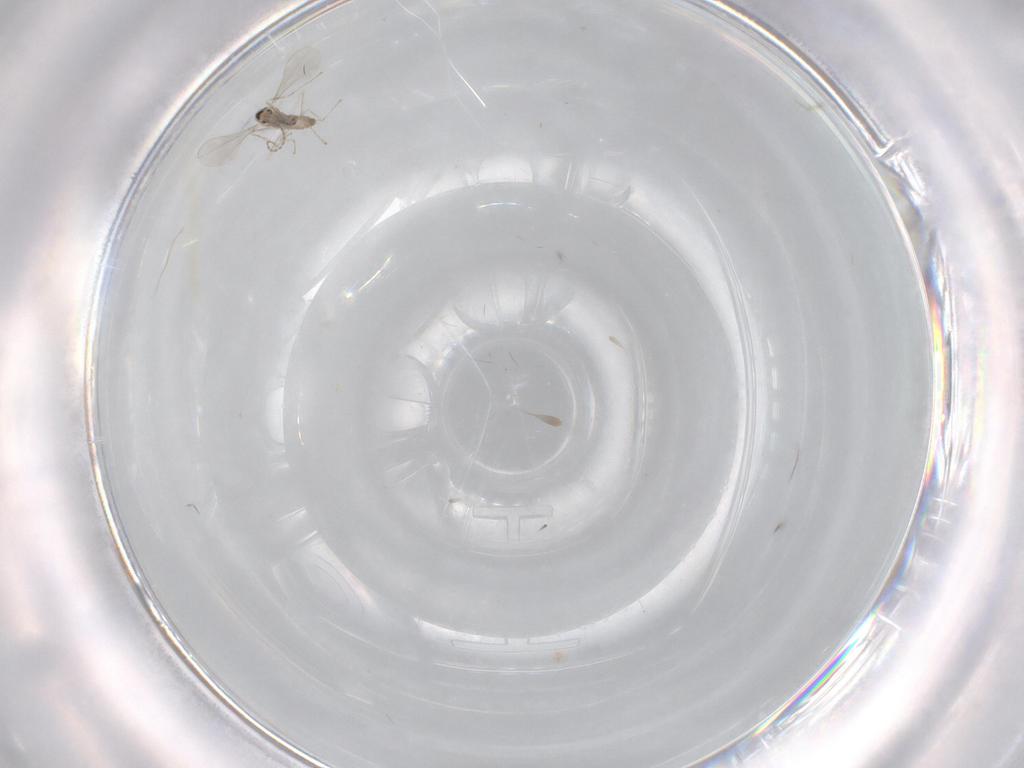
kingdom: Animalia
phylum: Arthropoda
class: Insecta
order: Diptera
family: Cecidomyiidae
